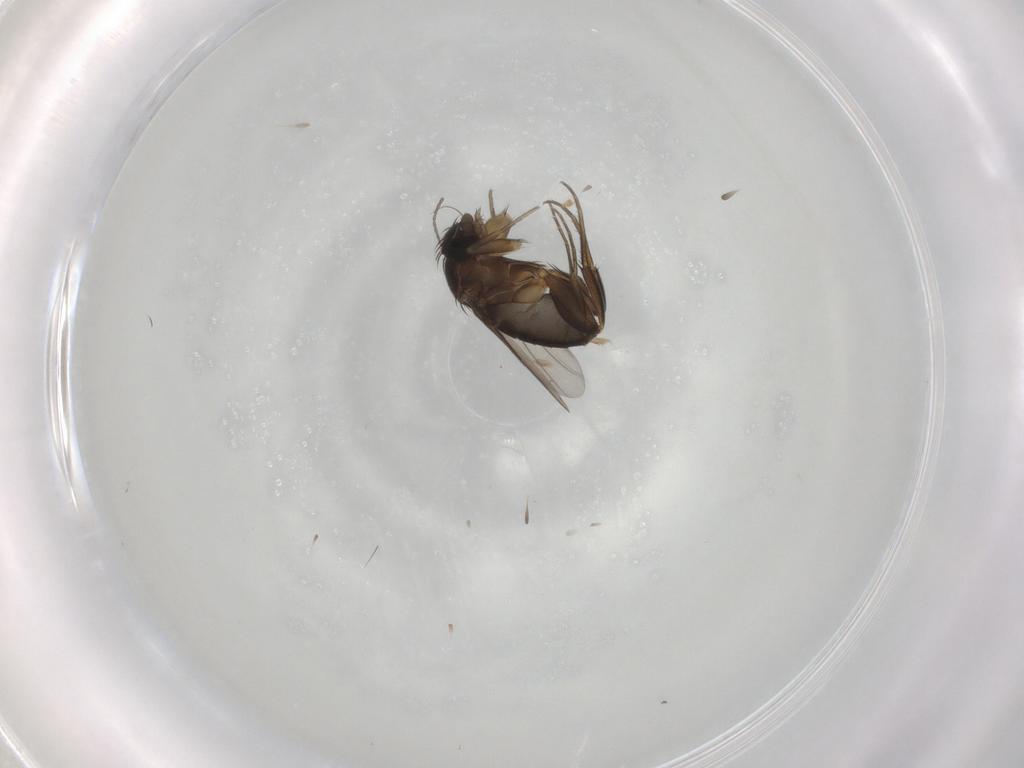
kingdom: Animalia
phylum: Arthropoda
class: Insecta
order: Diptera
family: Phoridae
